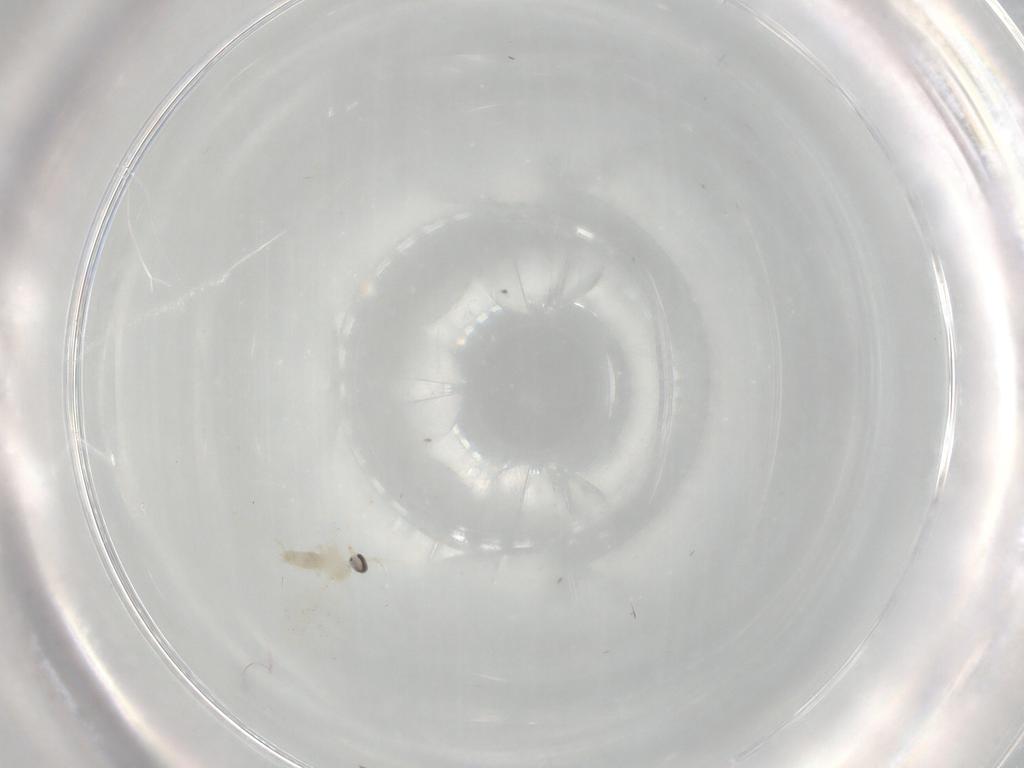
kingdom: Animalia
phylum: Arthropoda
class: Insecta
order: Diptera
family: Cecidomyiidae
